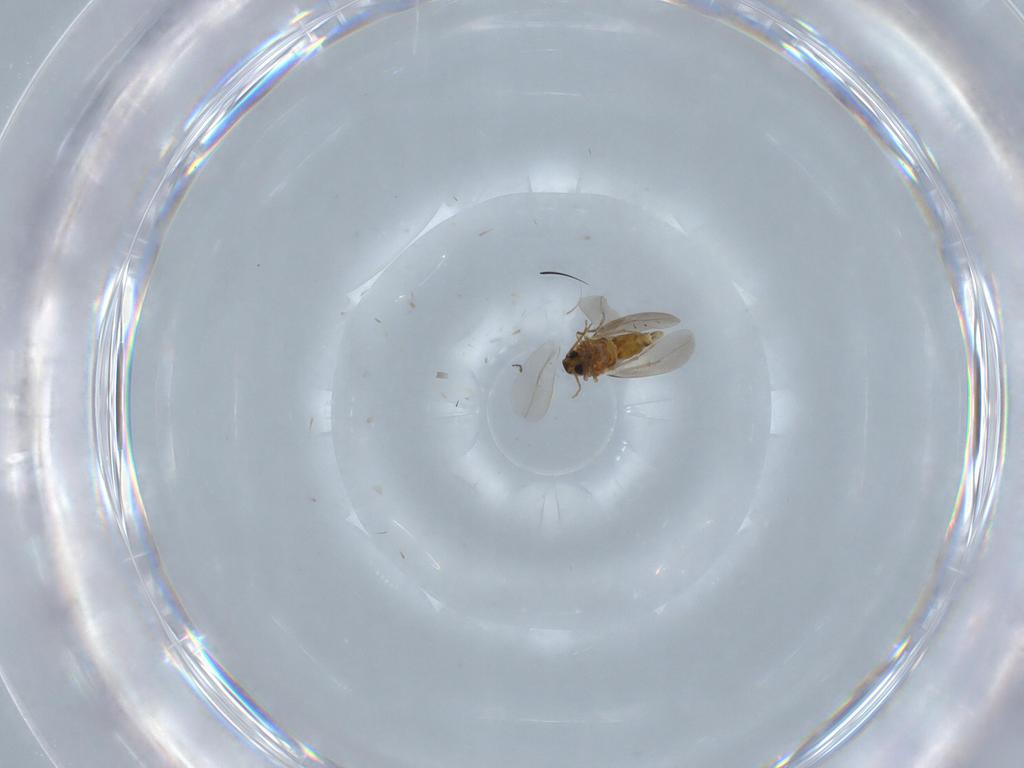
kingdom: Animalia
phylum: Arthropoda
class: Insecta
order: Hemiptera
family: Aleyrodidae
